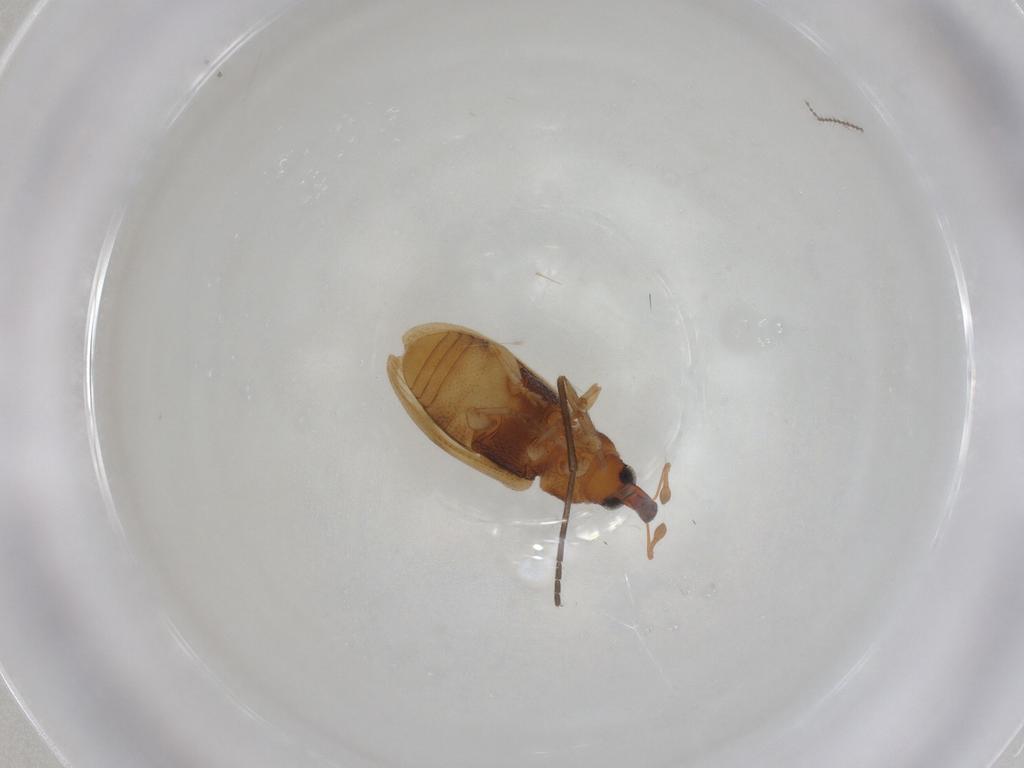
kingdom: Animalia
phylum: Arthropoda
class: Insecta
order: Coleoptera
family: Curculionidae
